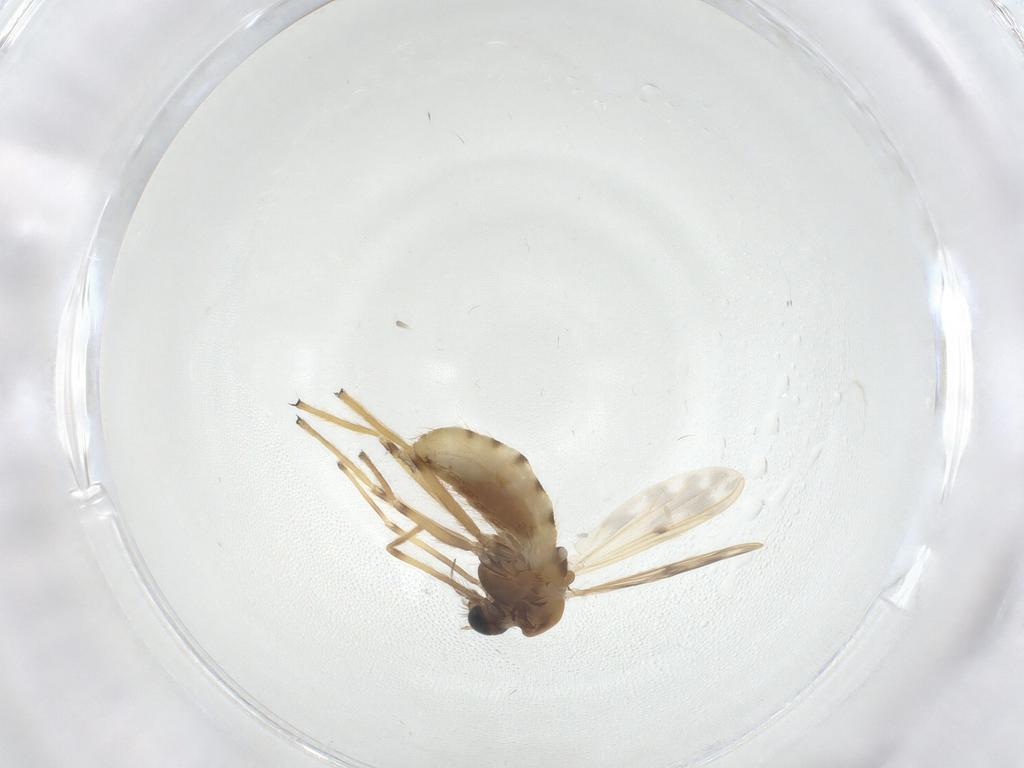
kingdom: Animalia
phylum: Arthropoda
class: Insecta
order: Diptera
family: Chironomidae
